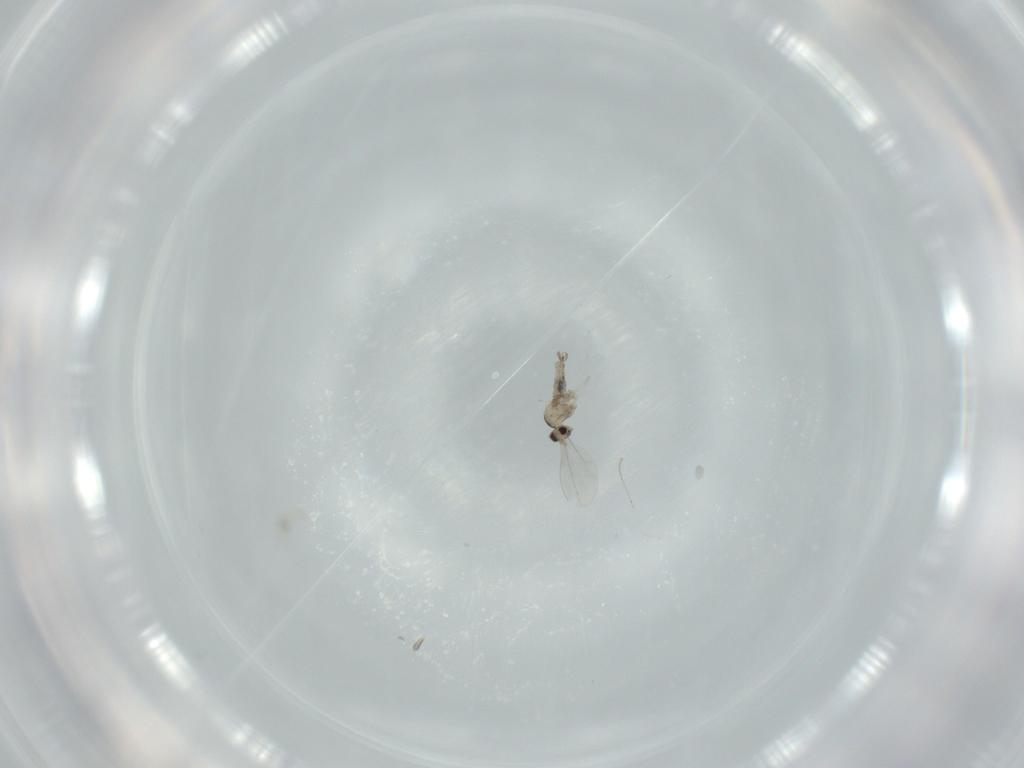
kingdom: Animalia
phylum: Arthropoda
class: Insecta
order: Diptera
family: Cecidomyiidae
